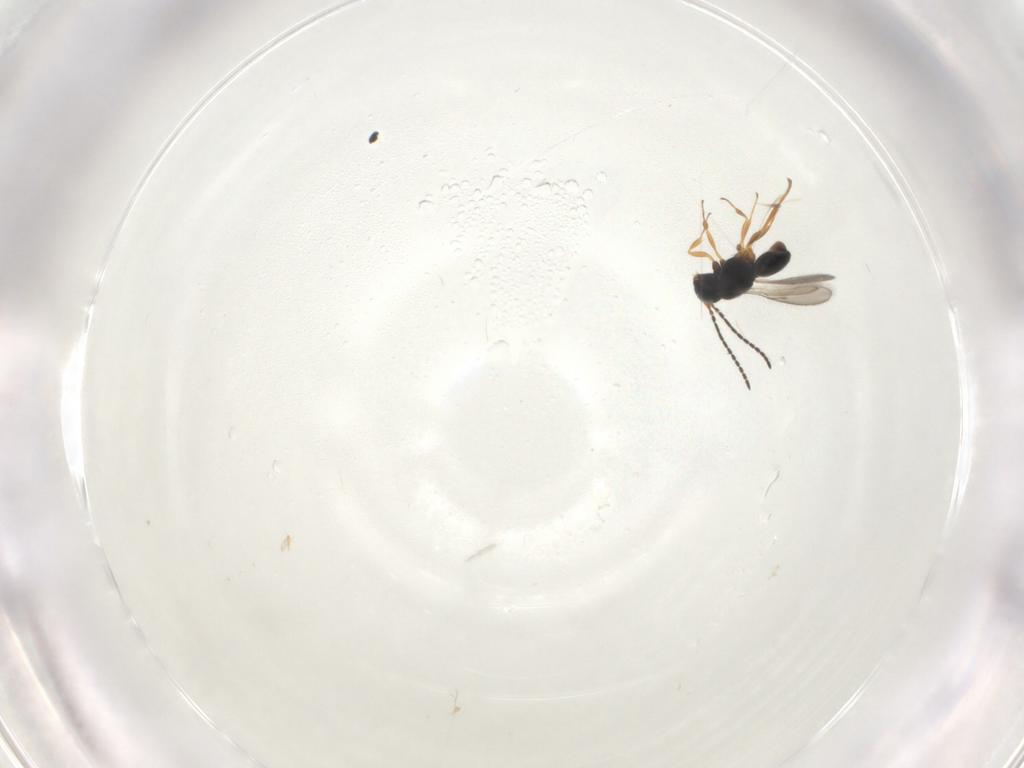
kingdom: Animalia
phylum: Arthropoda
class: Insecta
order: Hymenoptera
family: Scelionidae
